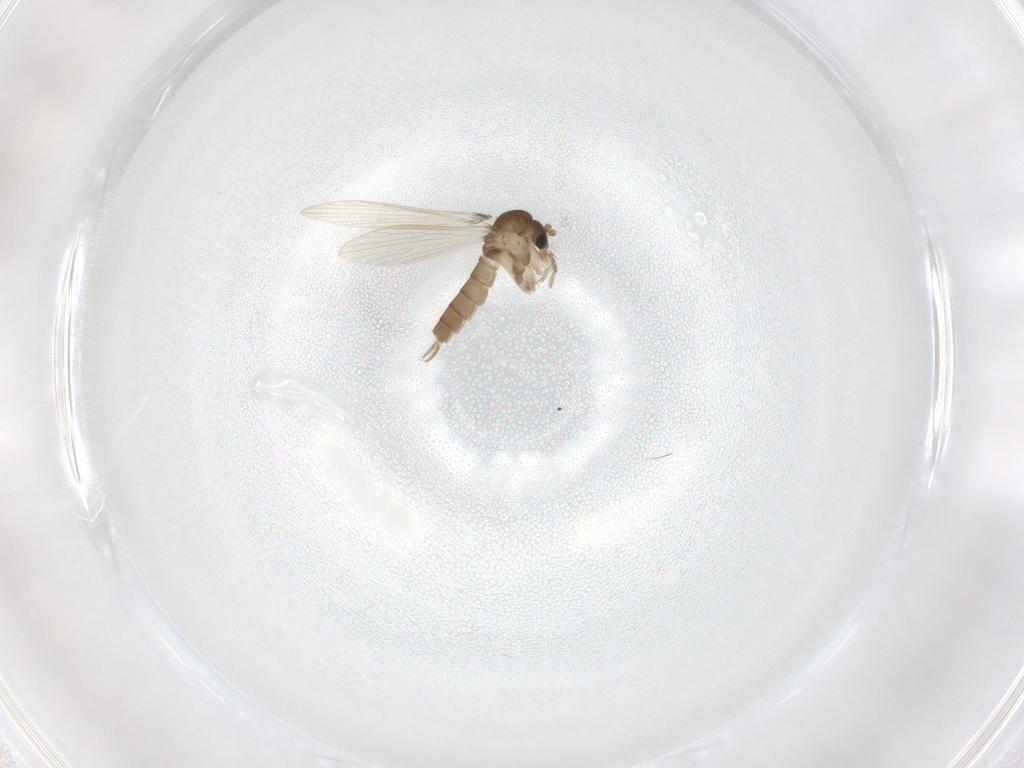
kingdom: Animalia
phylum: Arthropoda
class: Insecta
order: Diptera
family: Psychodidae
